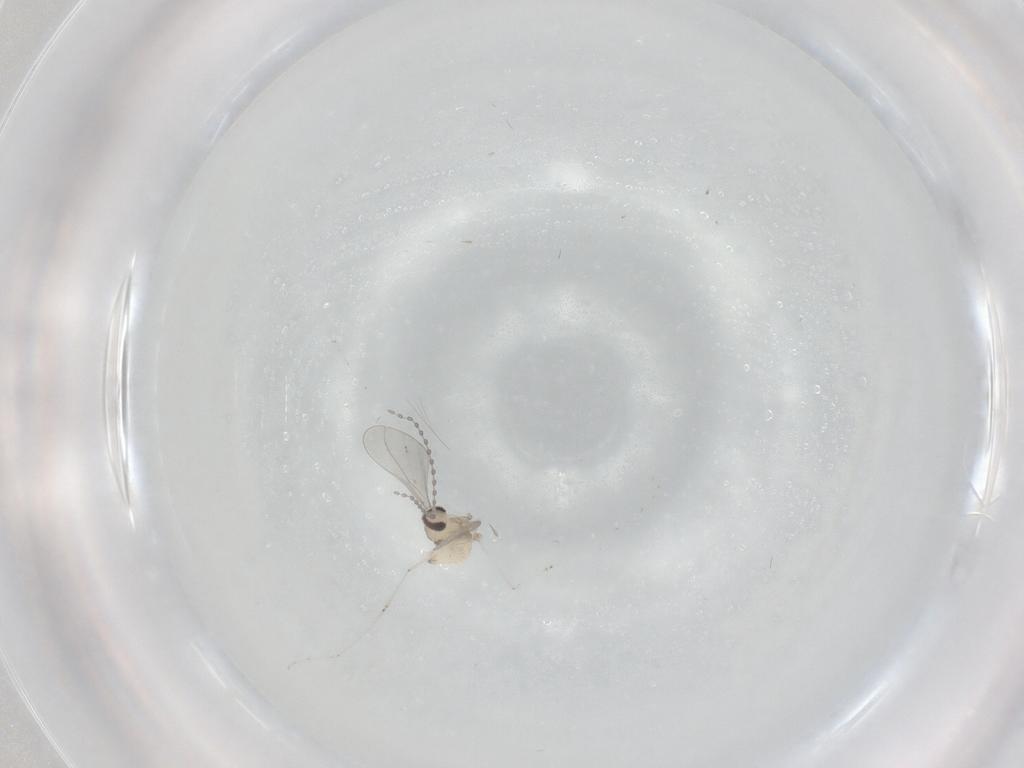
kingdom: Animalia
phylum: Arthropoda
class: Insecta
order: Diptera
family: Cecidomyiidae
